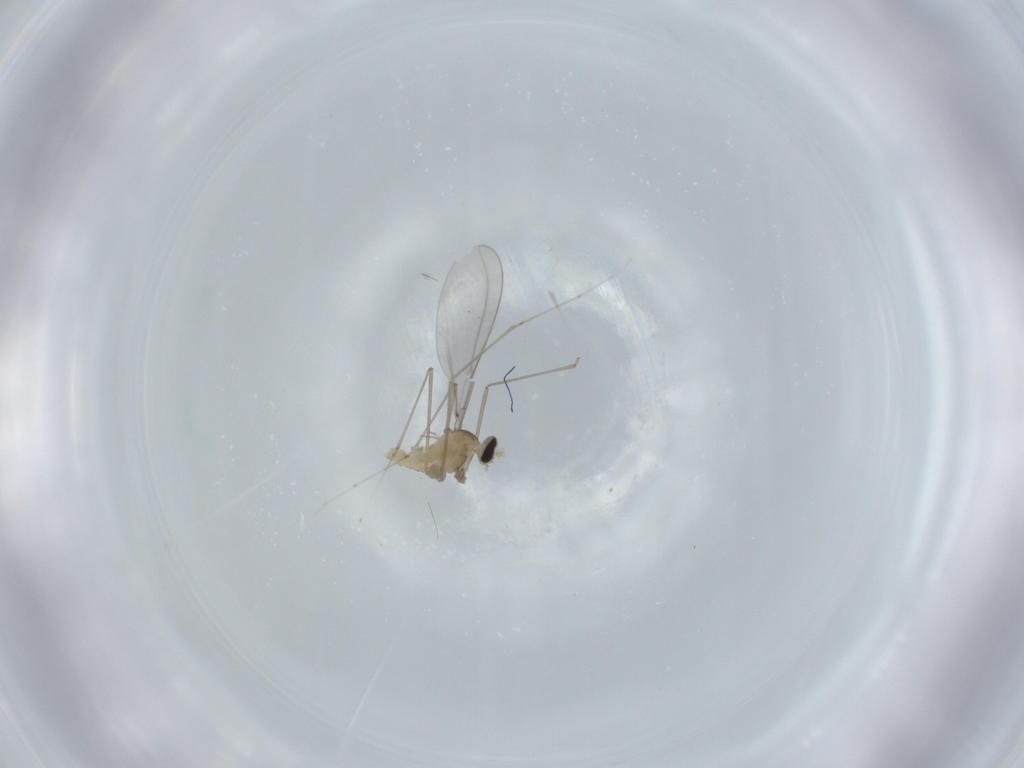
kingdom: Animalia
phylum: Arthropoda
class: Insecta
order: Diptera
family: Cecidomyiidae
